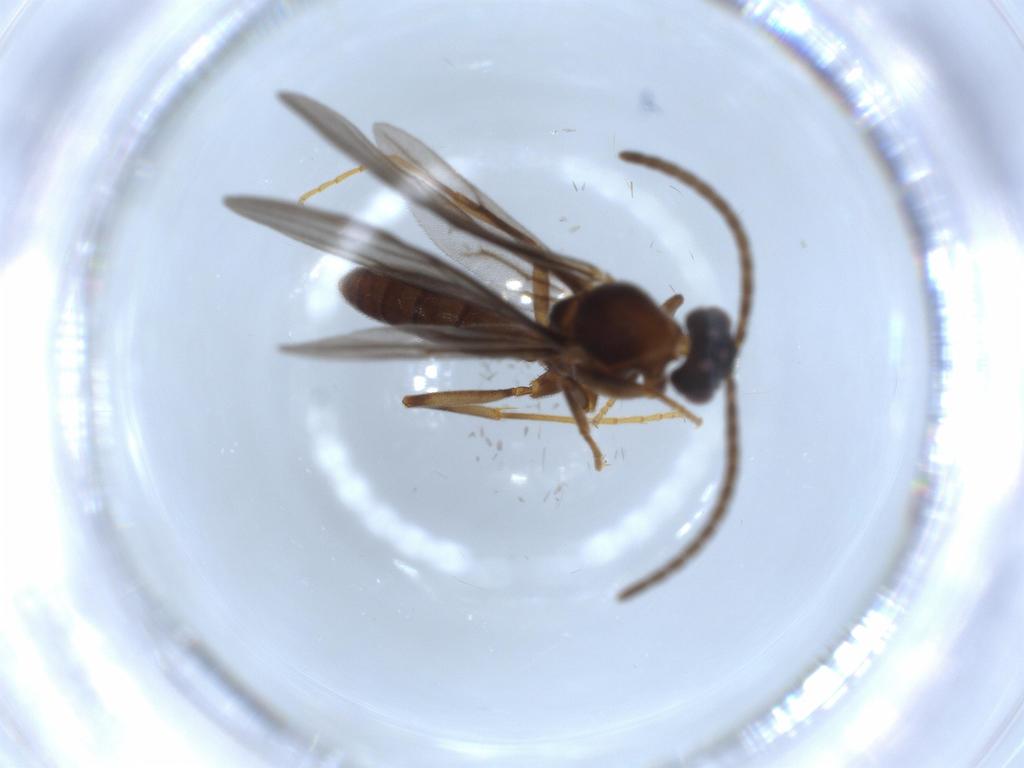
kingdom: Animalia
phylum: Arthropoda
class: Insecta
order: Hymenoptera
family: Formicidae
